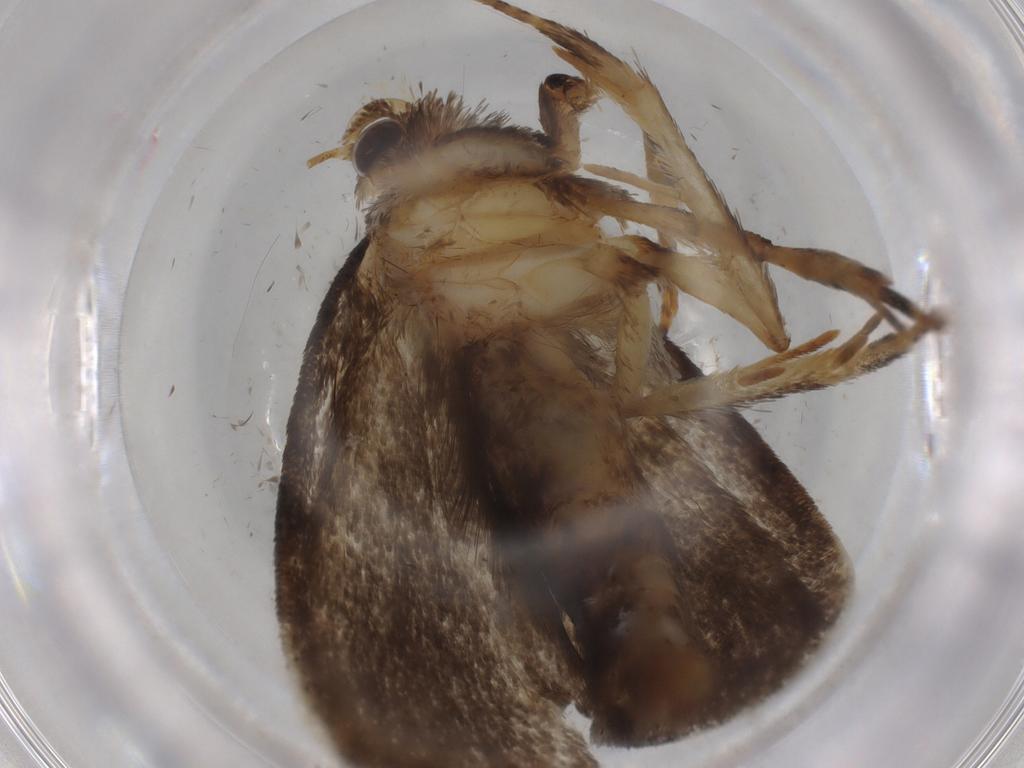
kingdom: Animalia
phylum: Arthropoda
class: Insecta
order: Lepidoptera
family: Tineidae
